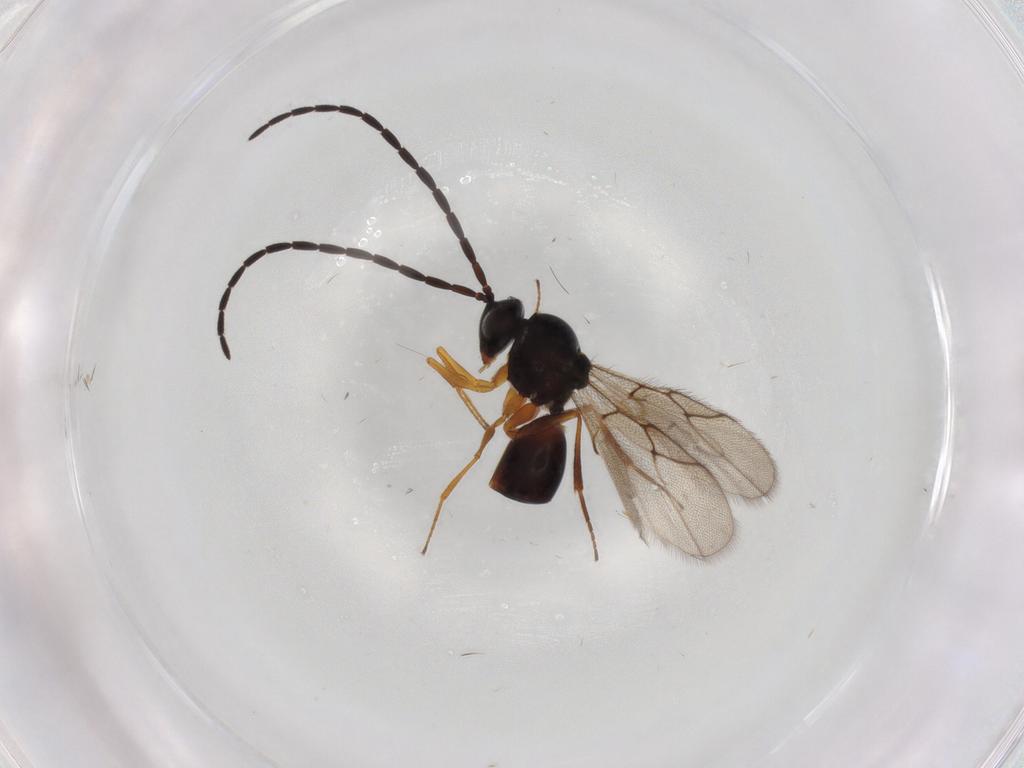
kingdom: Animalia
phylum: Arthropoda
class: Insecta
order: Hymenoptera
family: Figitidae
